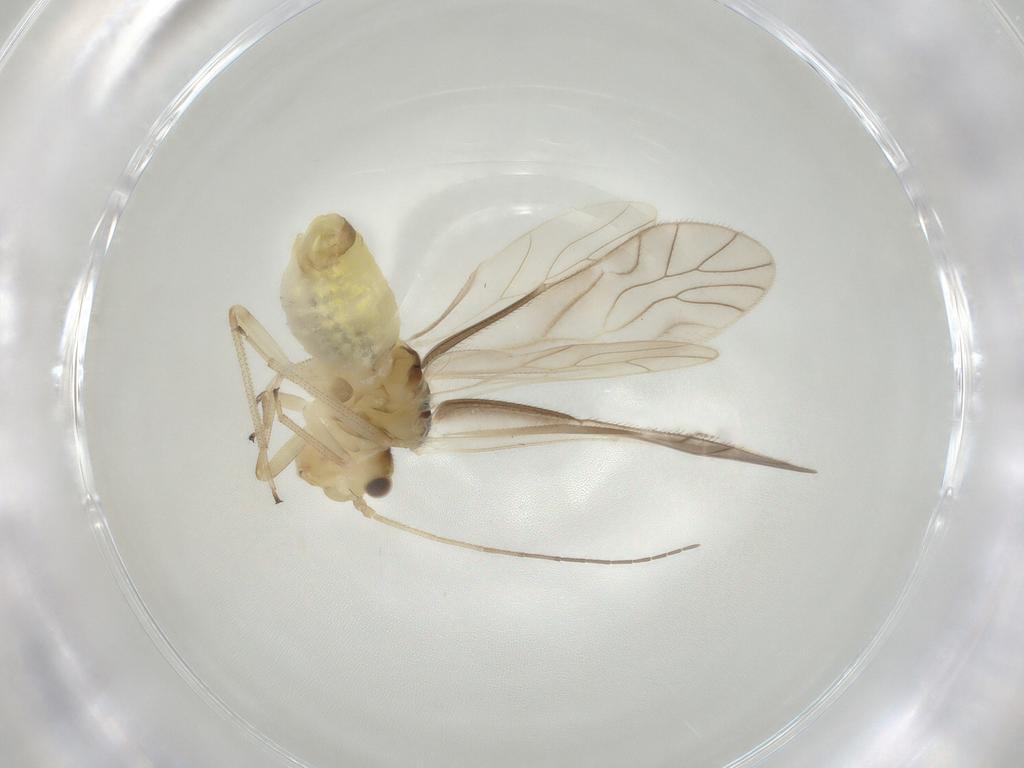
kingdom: Animalia
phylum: Arthropoda
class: Insecta
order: Psocodea
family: Caeciliusidae
